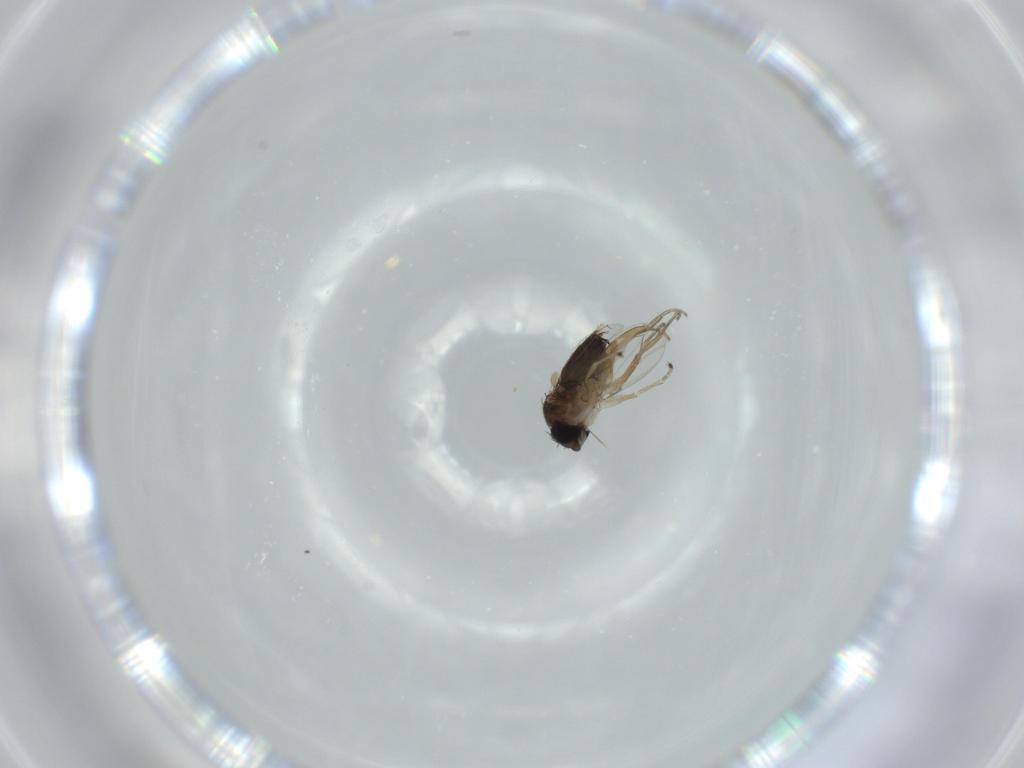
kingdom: Animalia
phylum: Arthropoda
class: Insecta
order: Diptera
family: Phoridae
